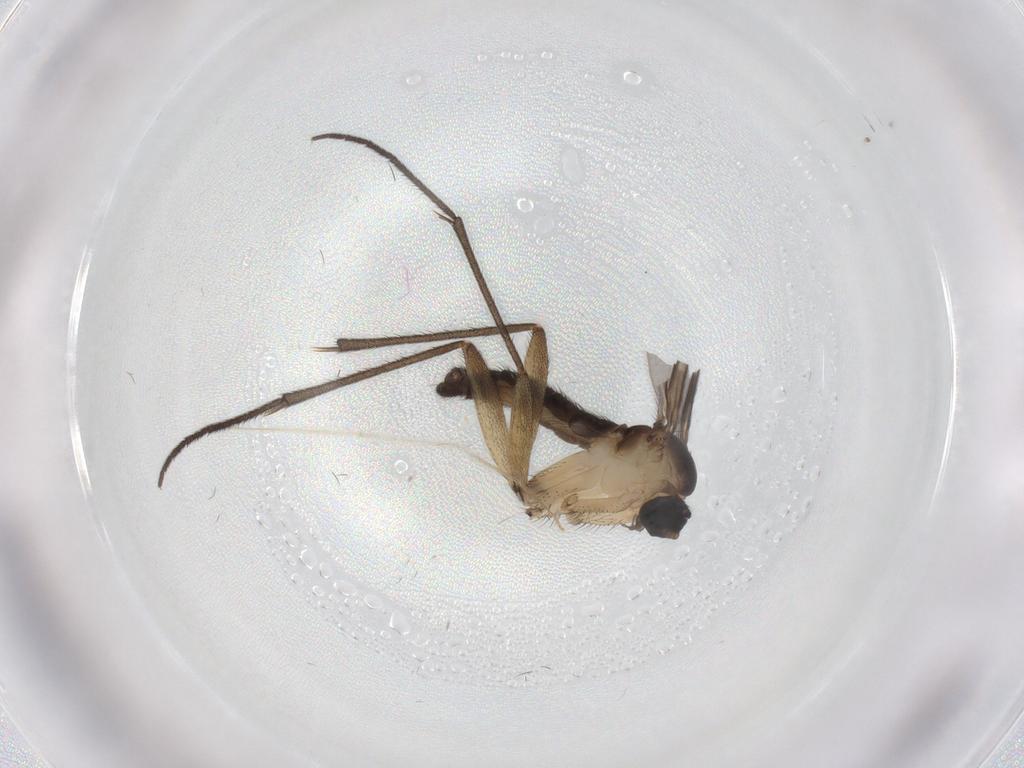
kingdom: Animalia
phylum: Arthropoda
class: Insecta
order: Diptera
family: Sciaridae
